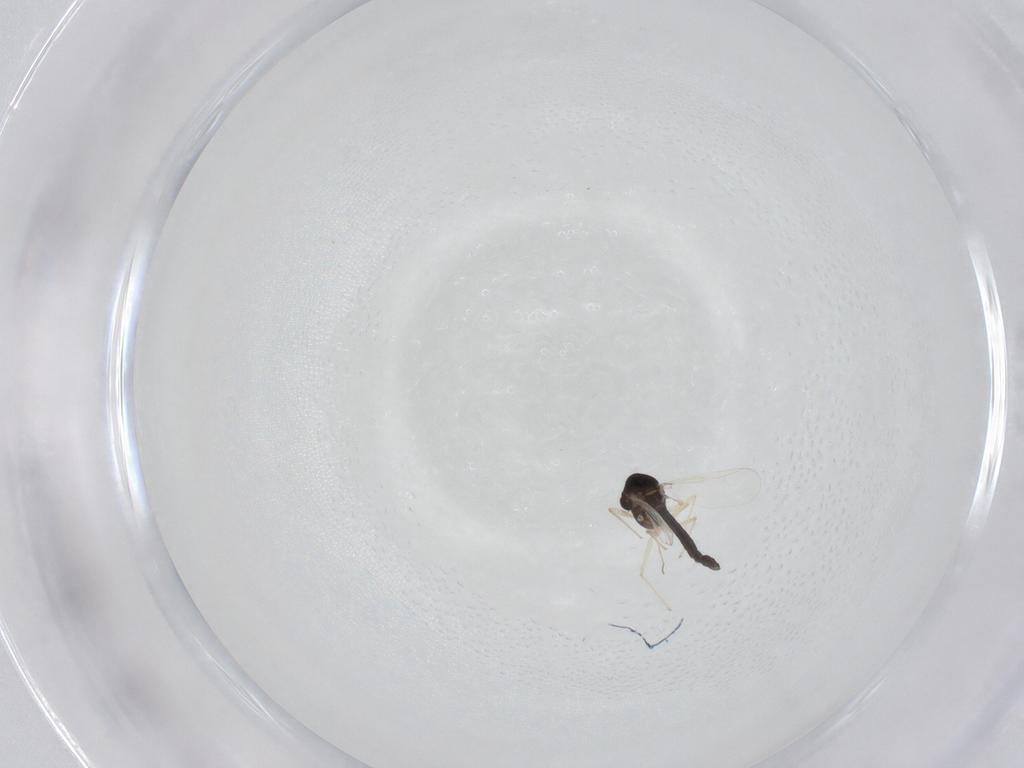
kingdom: Animalia
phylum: Arthropoda
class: Insecta
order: Diptera
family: Chironomidae
